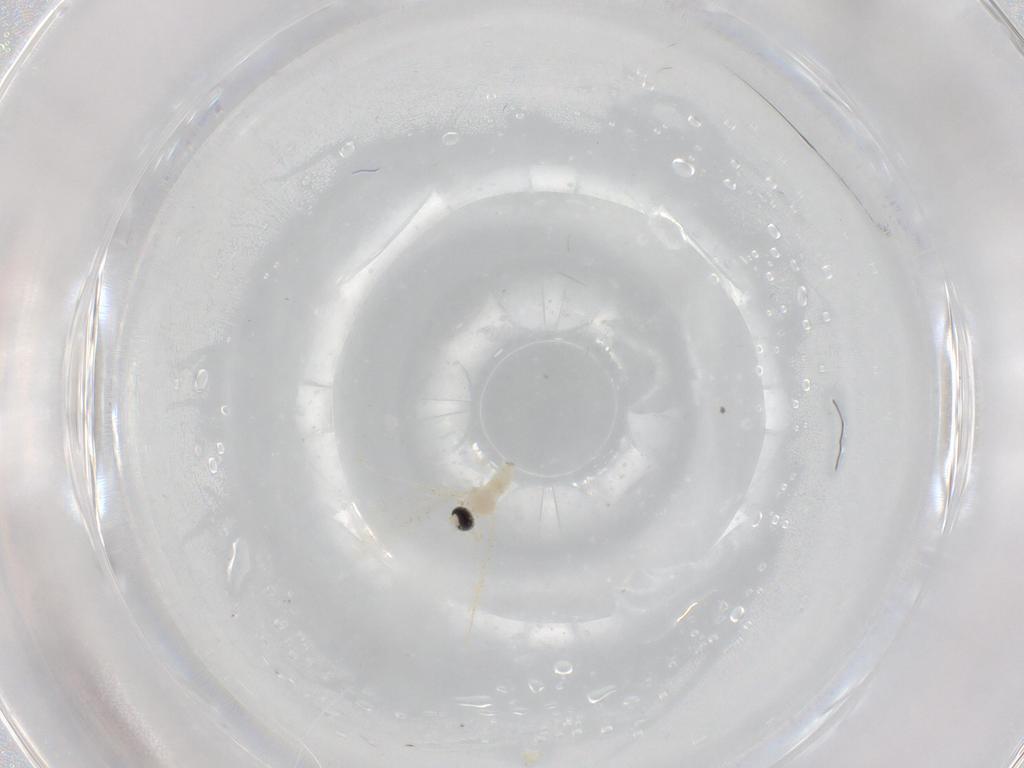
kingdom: Animalia
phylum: Arthropoda
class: Insecta
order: Diptera
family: Cecidomyiidae
